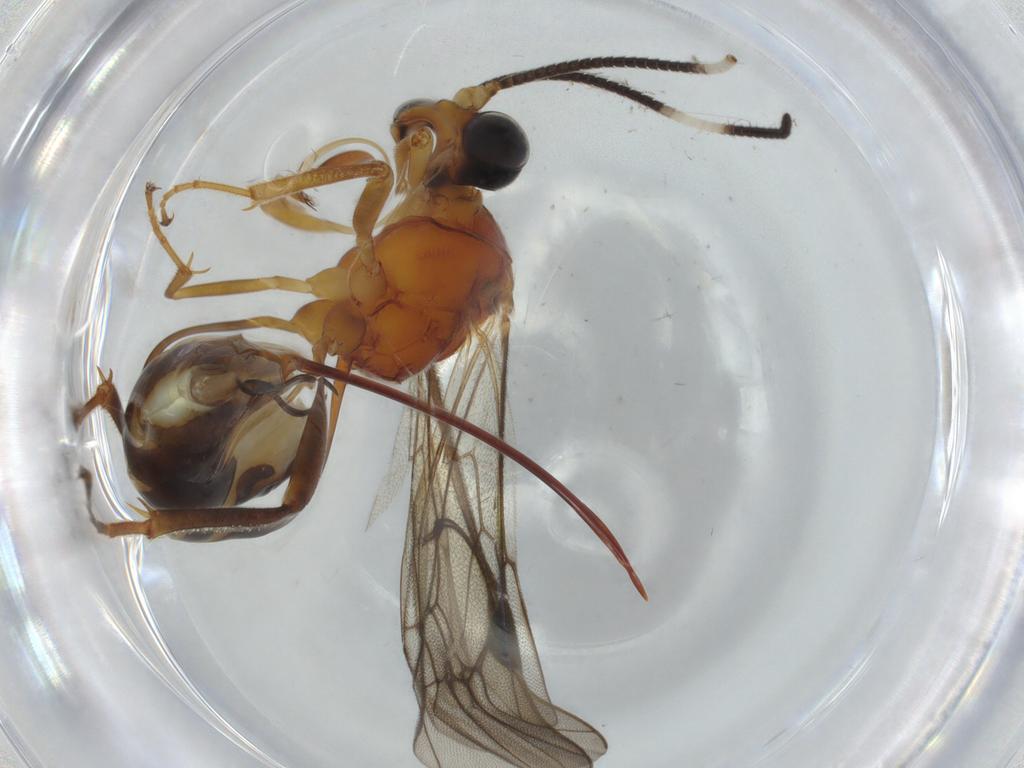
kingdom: Animalia
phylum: Arthropoda
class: Insecta
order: Hymenoptera
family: Ichneumonidae
